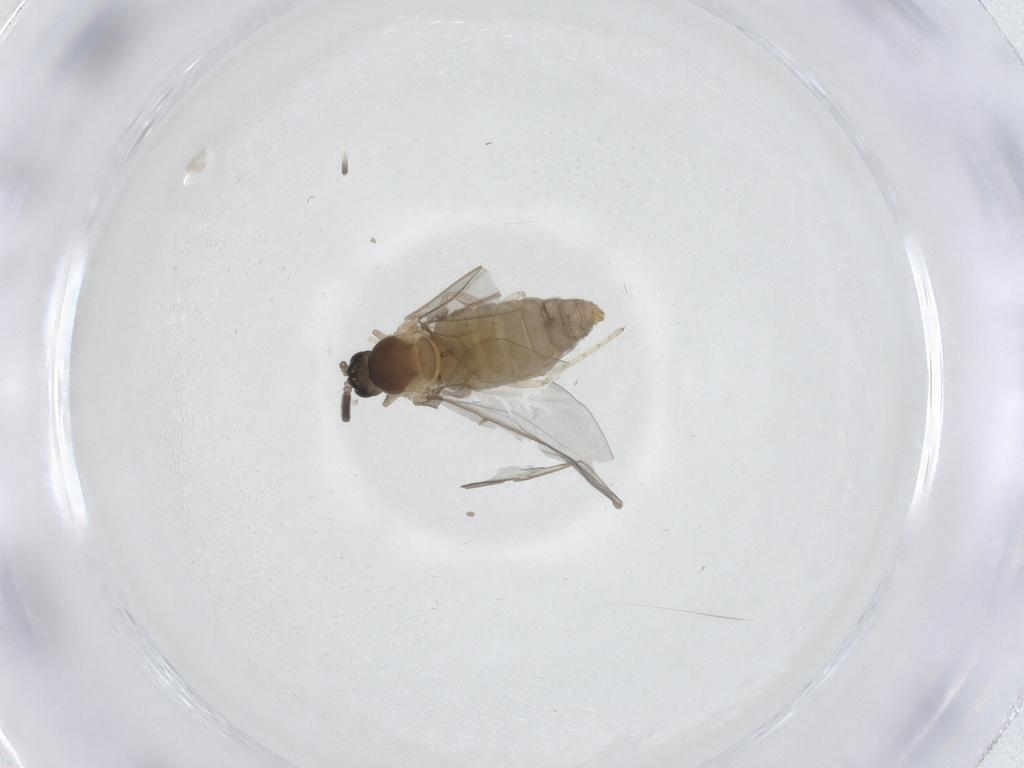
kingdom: Animalia
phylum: Arthropoda
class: Insecta
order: Diptera
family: Cecidomyiidae
